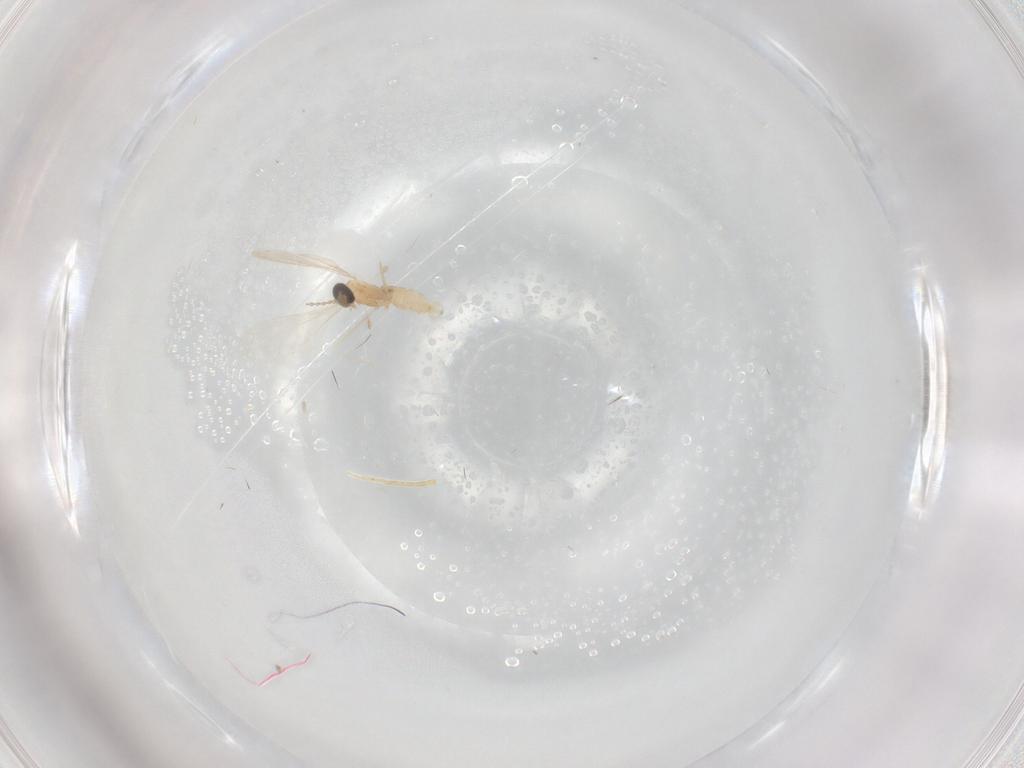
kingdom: Animalia
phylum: Arthropoda
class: Insecta
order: Diptera
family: Cecidomyiidae
